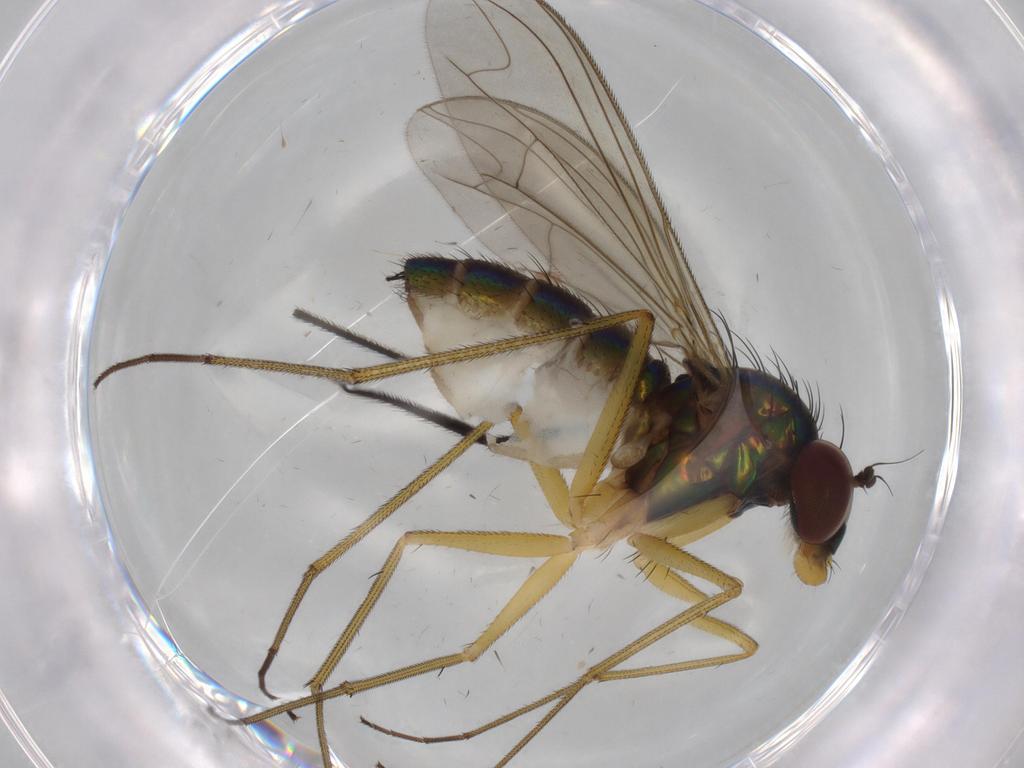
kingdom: Animalia
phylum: Arthropoda
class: Insecta
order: Diptera
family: Dolichopodidae
